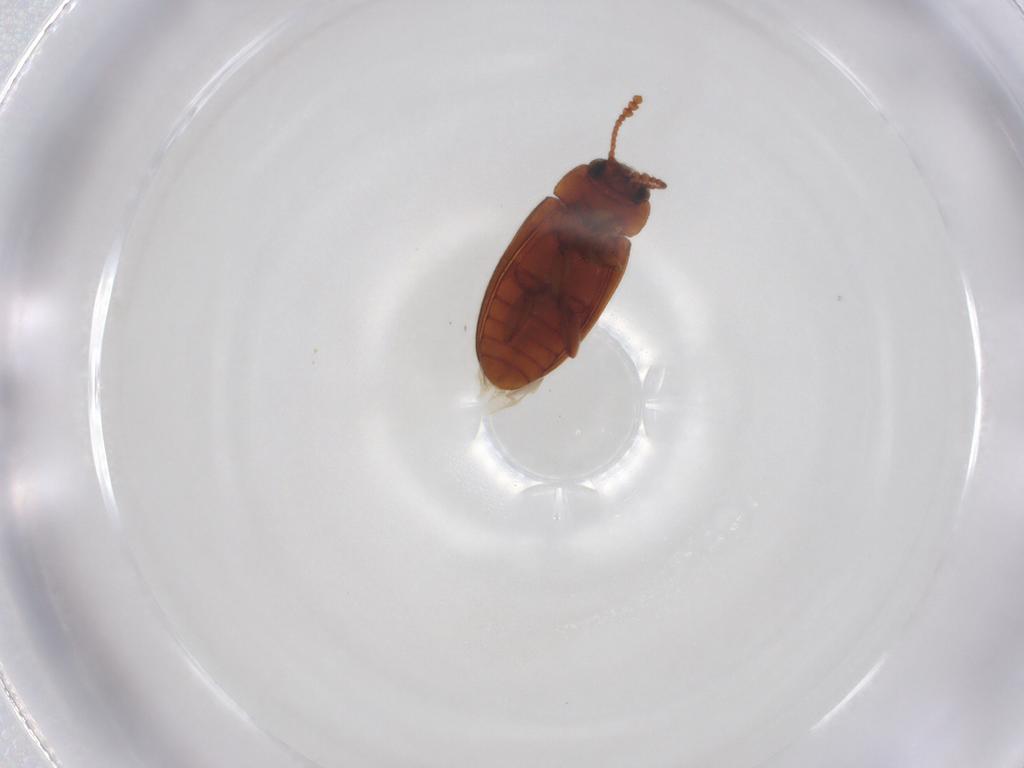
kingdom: Animalia
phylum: Arthropoda
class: Insecta
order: Coleoptera
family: Erotylidae
